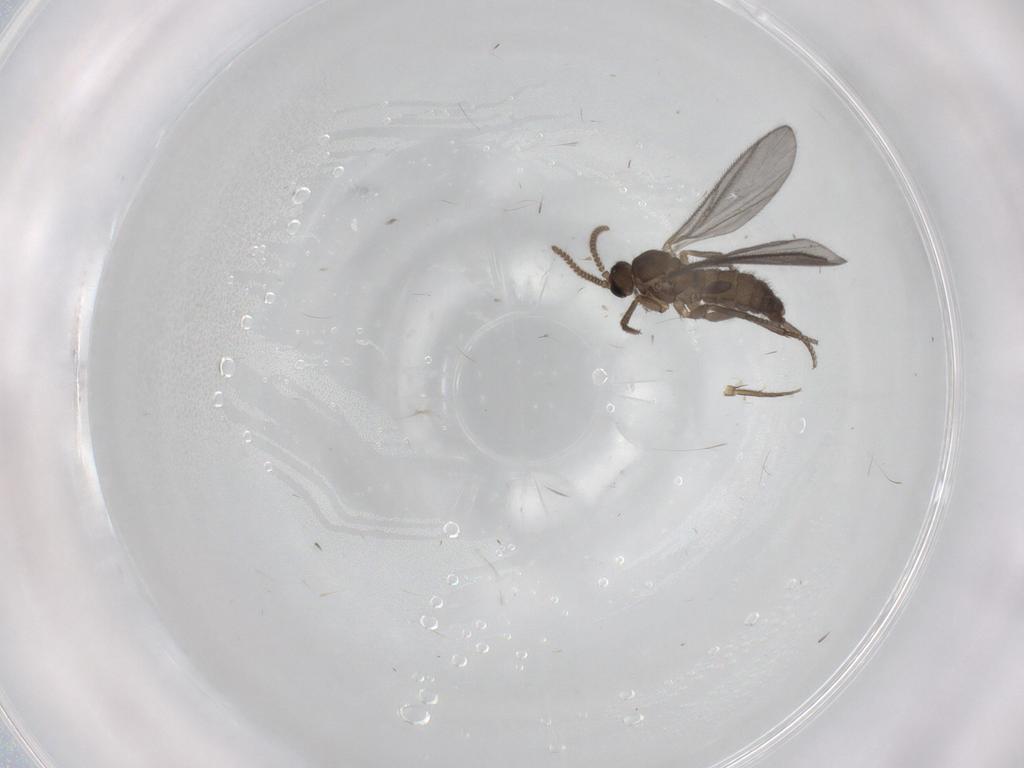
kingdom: Animalia
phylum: Arthropoda
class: Insecta
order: Diptera
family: Sciaridae
